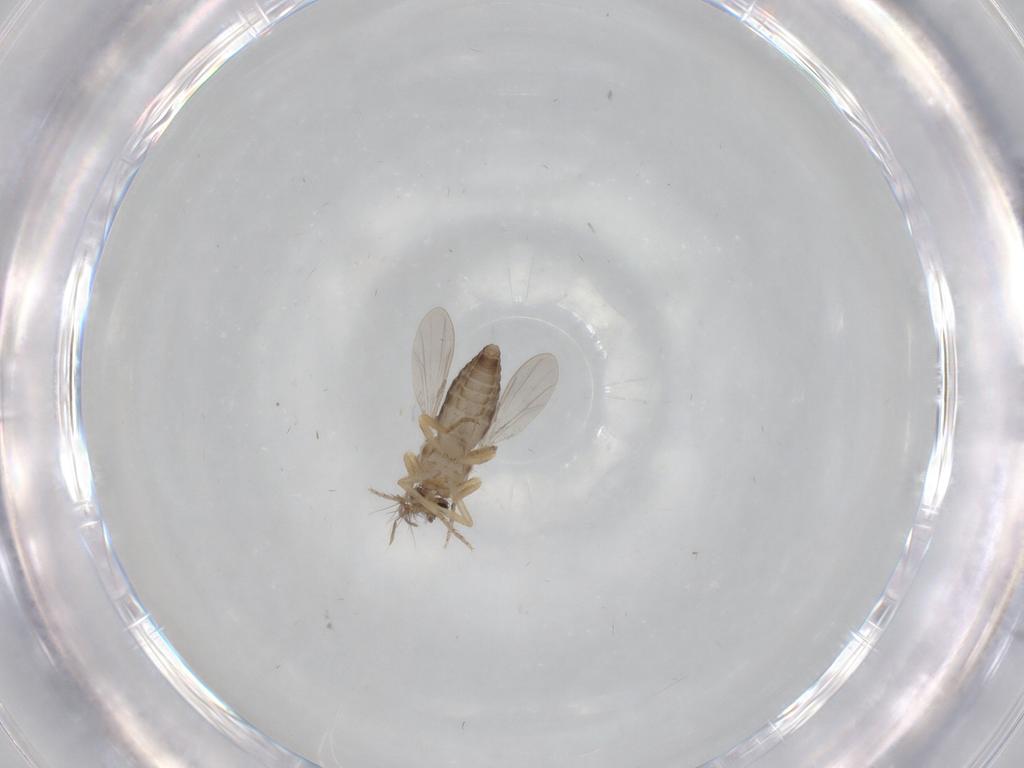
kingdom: Animalia
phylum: Arthropoda
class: Insecta
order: Diptera
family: Ceratopogonidae
